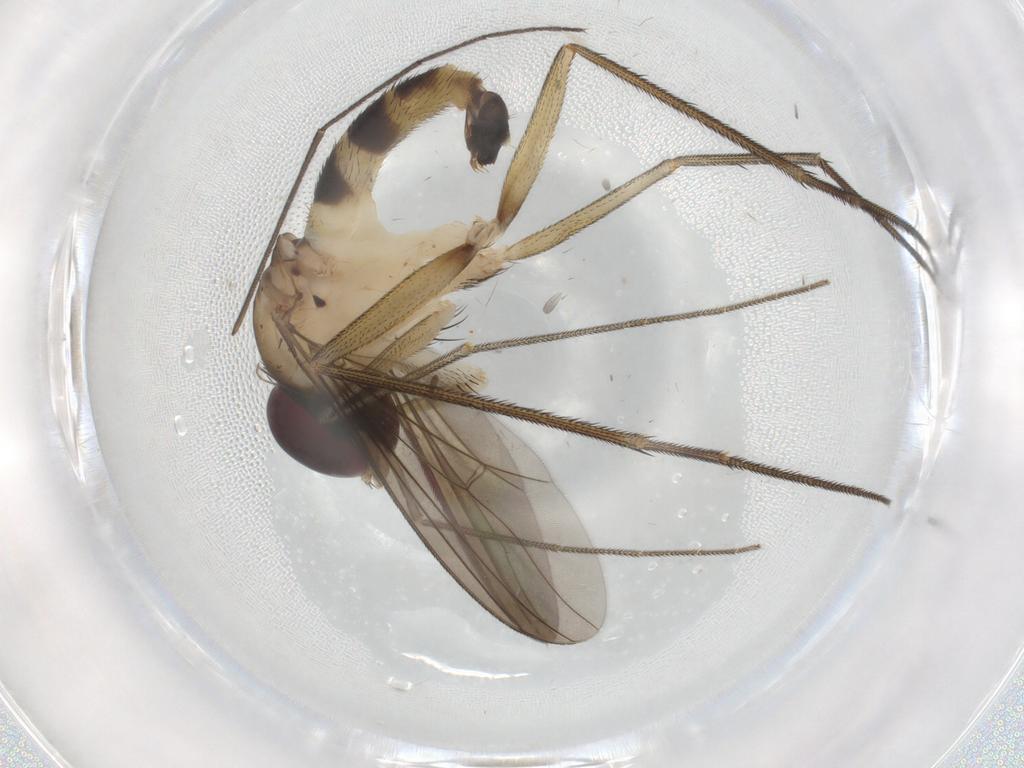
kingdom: Animalia
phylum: Arthropoda
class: Insecta
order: Diptera
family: Dolichopodidae
